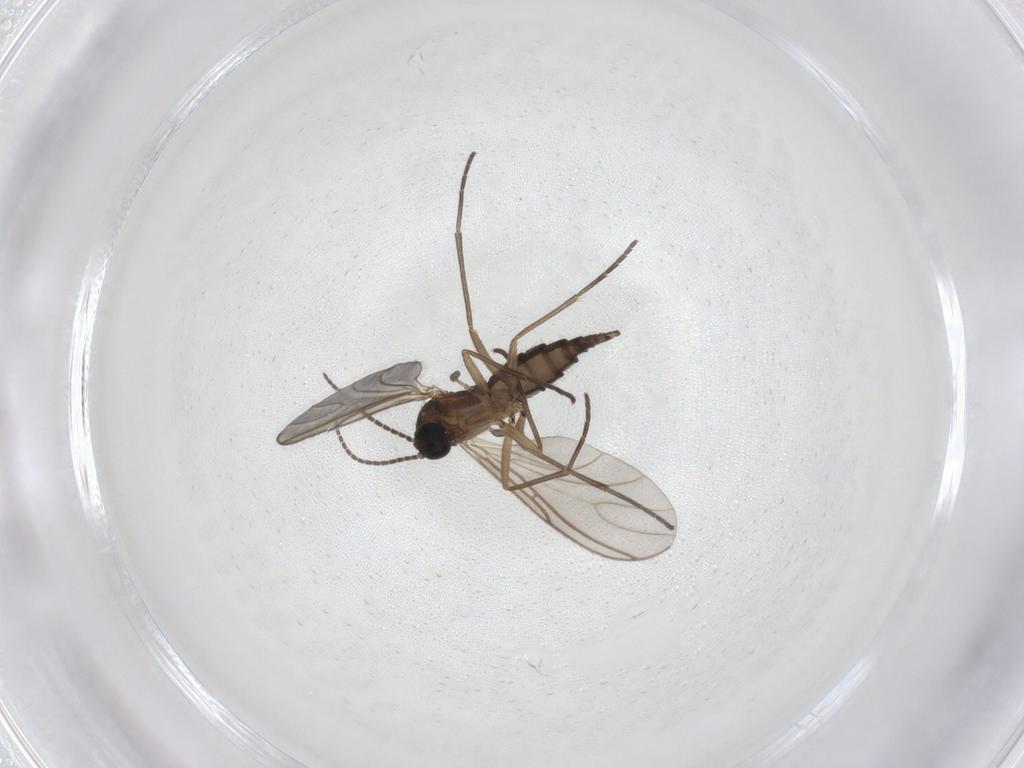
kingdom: Animalia
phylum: Arthropoda
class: Insecta
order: Diptera
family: Sciaridae
